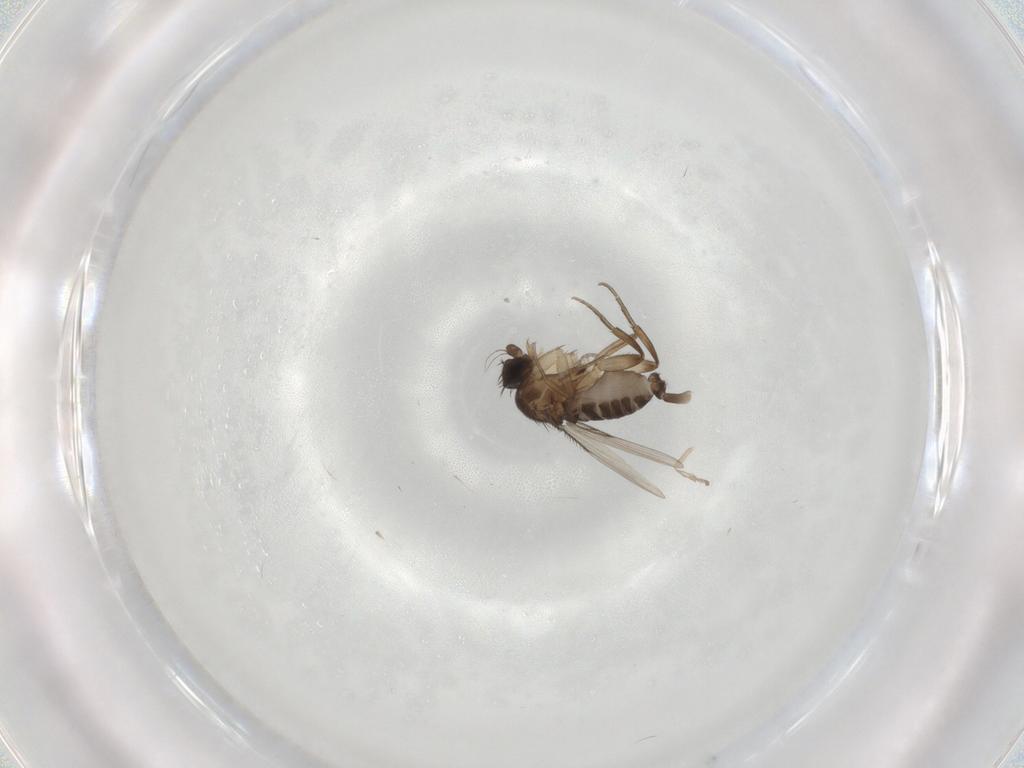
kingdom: Animalia
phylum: Arthropoda
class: Insecta
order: Diptera
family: Phoridae
